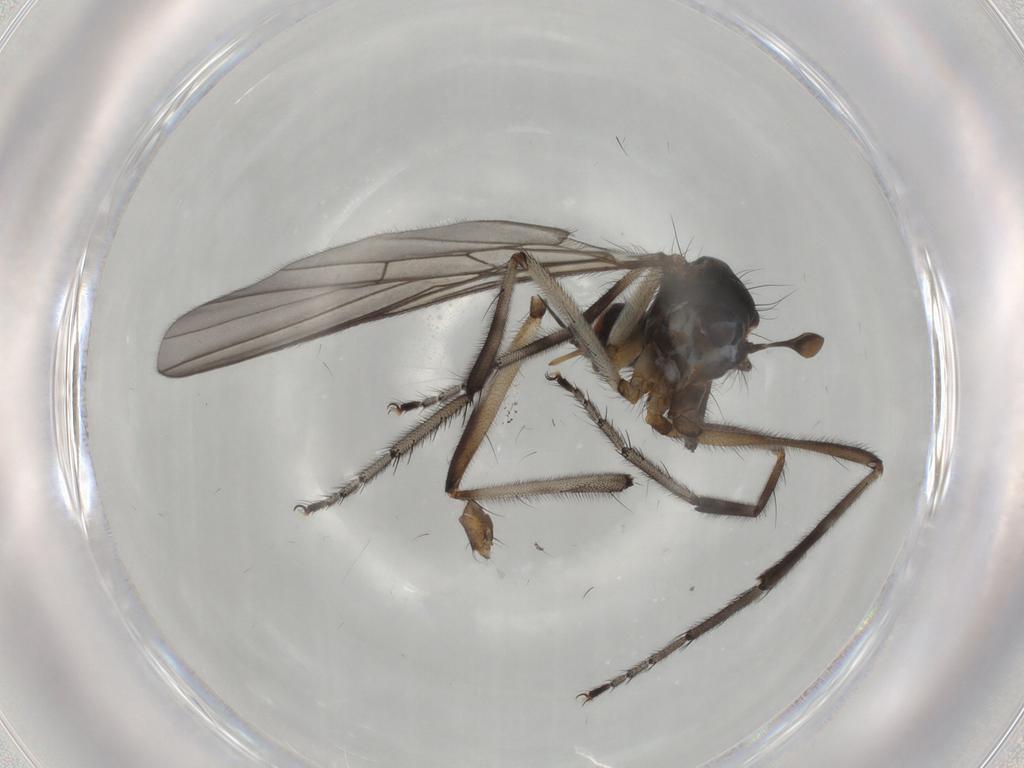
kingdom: Animalia
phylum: Arthropoda
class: Insecta
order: Diptera
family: Empididae
